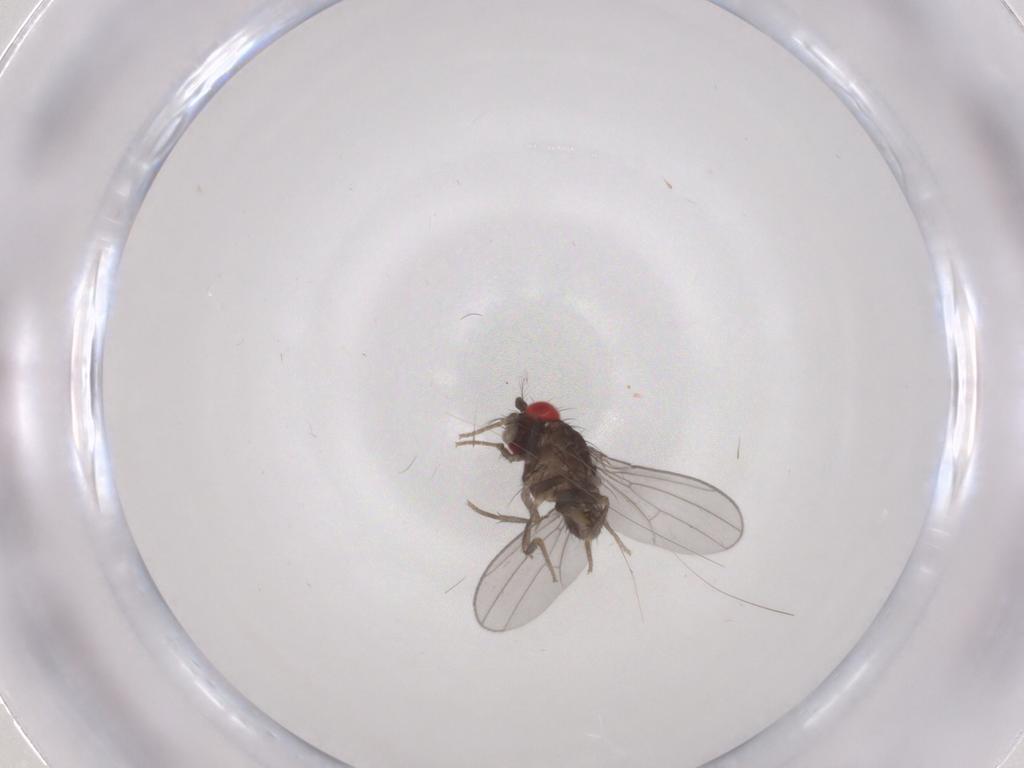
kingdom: Animalia
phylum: Arthropoda
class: Insecta
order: Diptera
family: Drosophilidae
